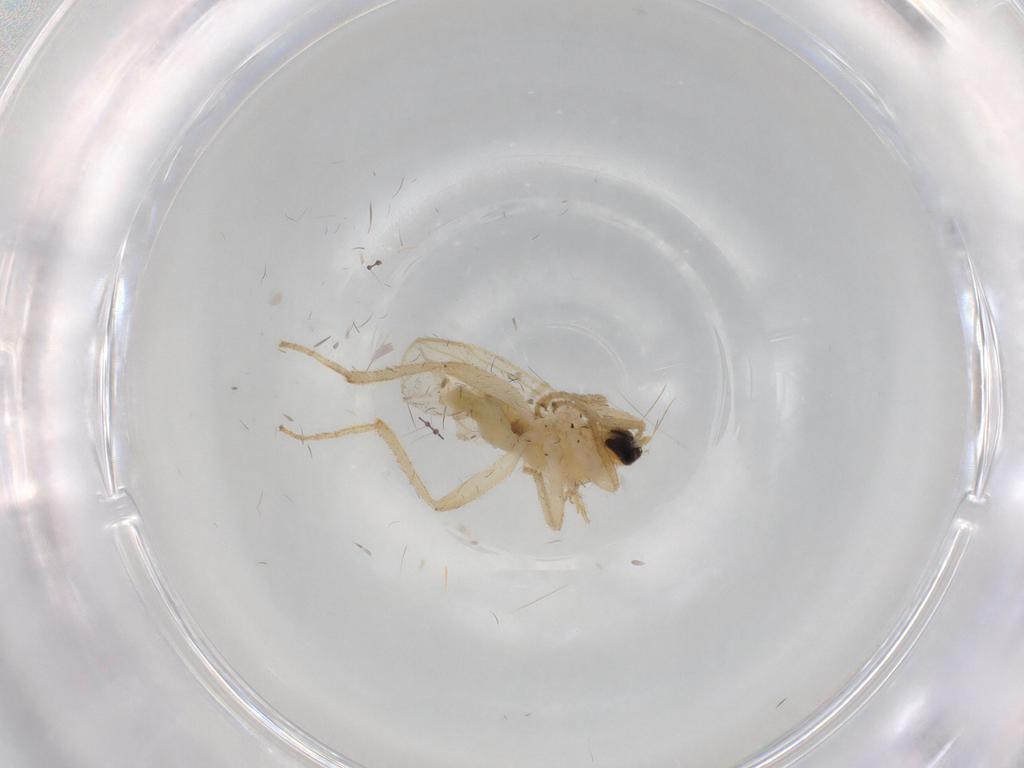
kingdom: Animalia
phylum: Arthropoda
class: Insecta
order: Diptera
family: Hybotidae
